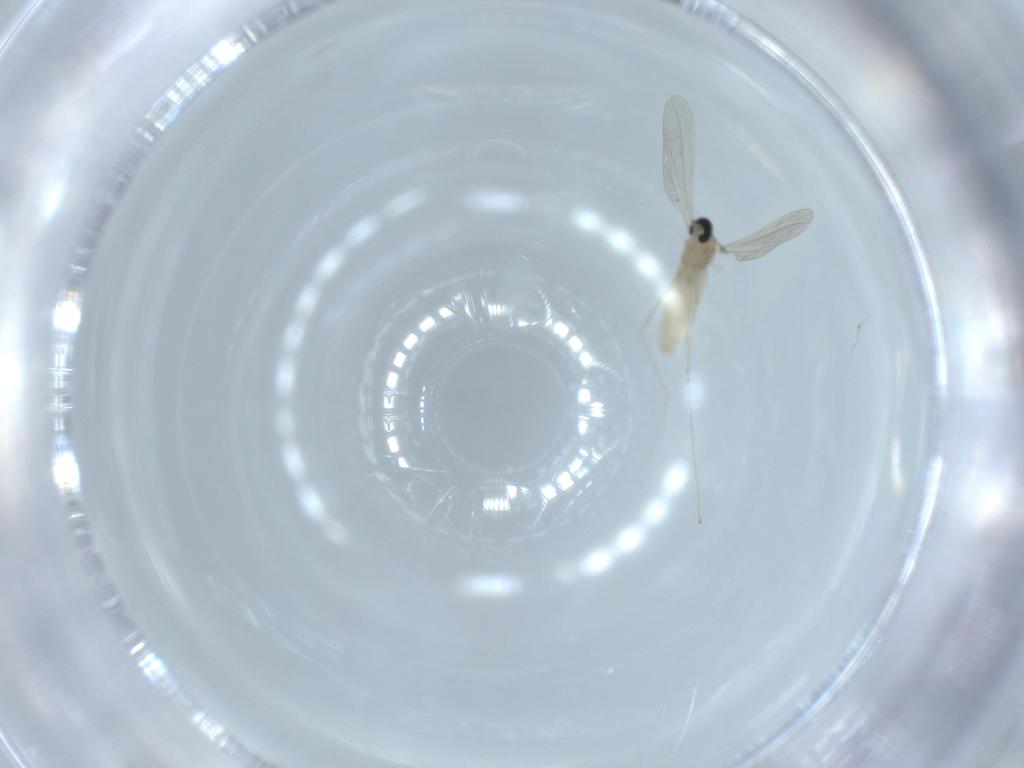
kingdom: Animalia
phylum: Arthropoda
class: Insecta
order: Diptera
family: Cecidomyiidae
